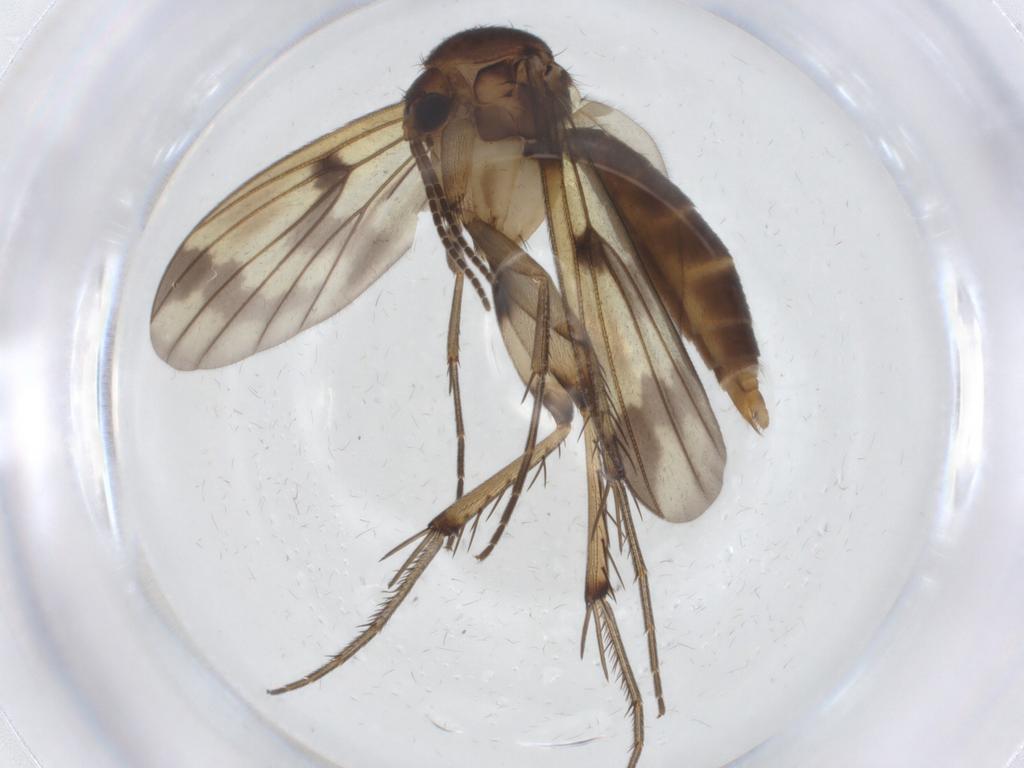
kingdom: Animalia
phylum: Arthropoda
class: Insecta
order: Diptera
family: Mycetophilidae
